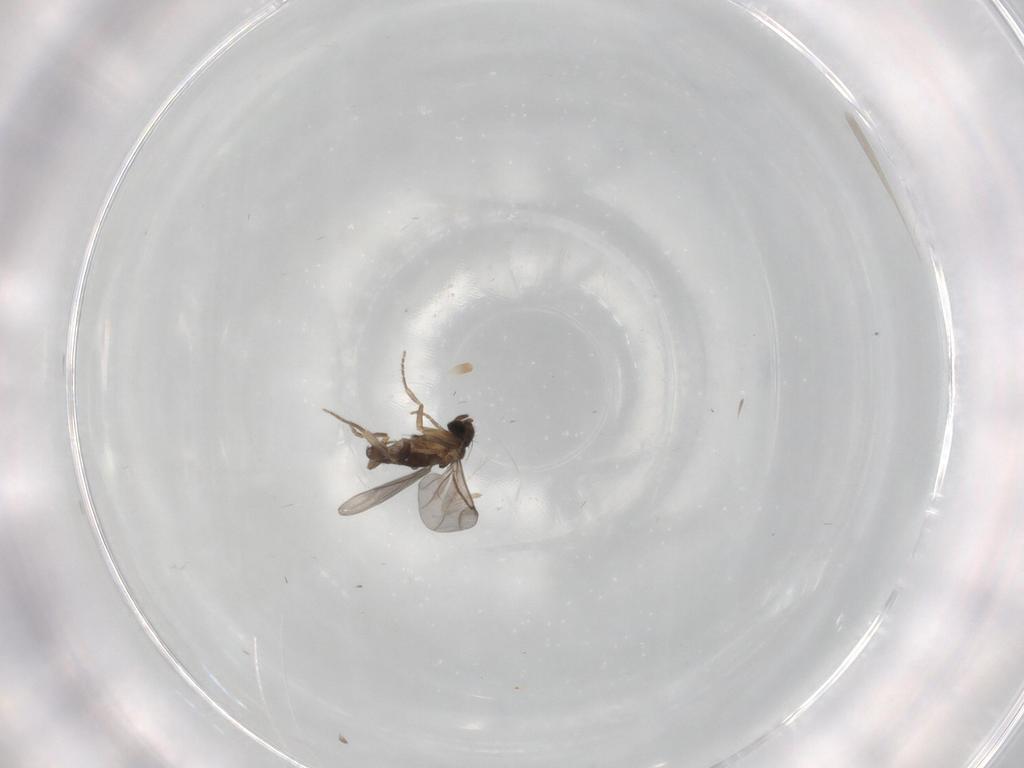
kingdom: Animalia
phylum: Arthropoda
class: Insecta
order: Diptera
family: Phoridae
